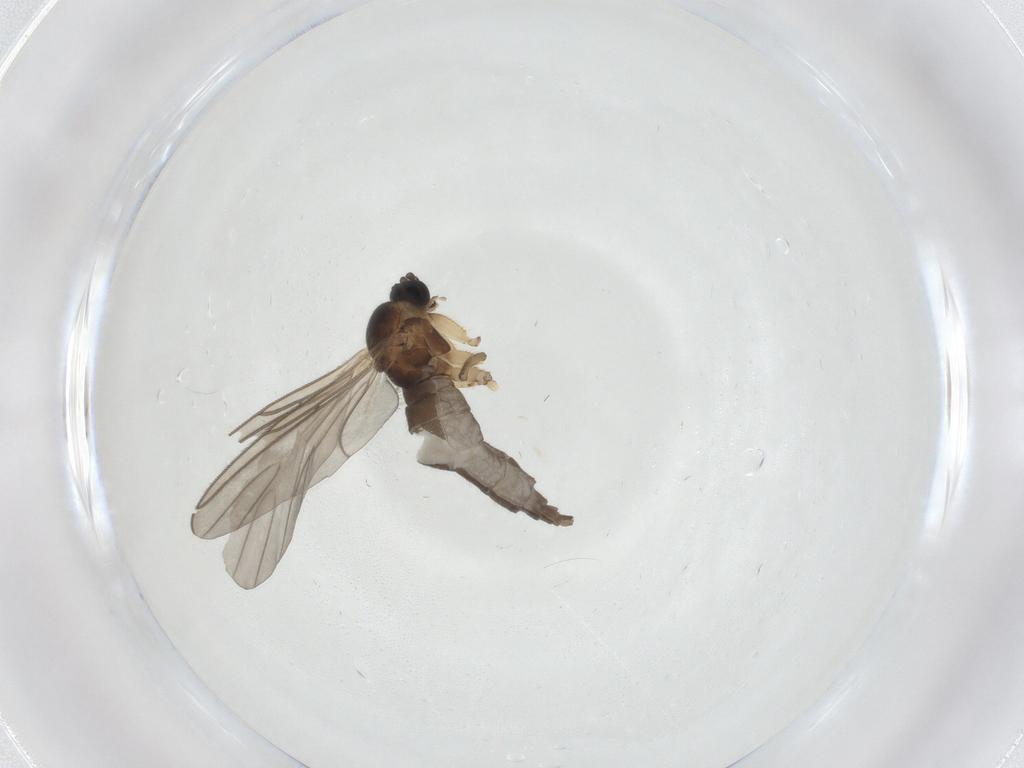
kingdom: Animalia
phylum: Arthropoda
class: Insecta
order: Diptera
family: Sciaridae
